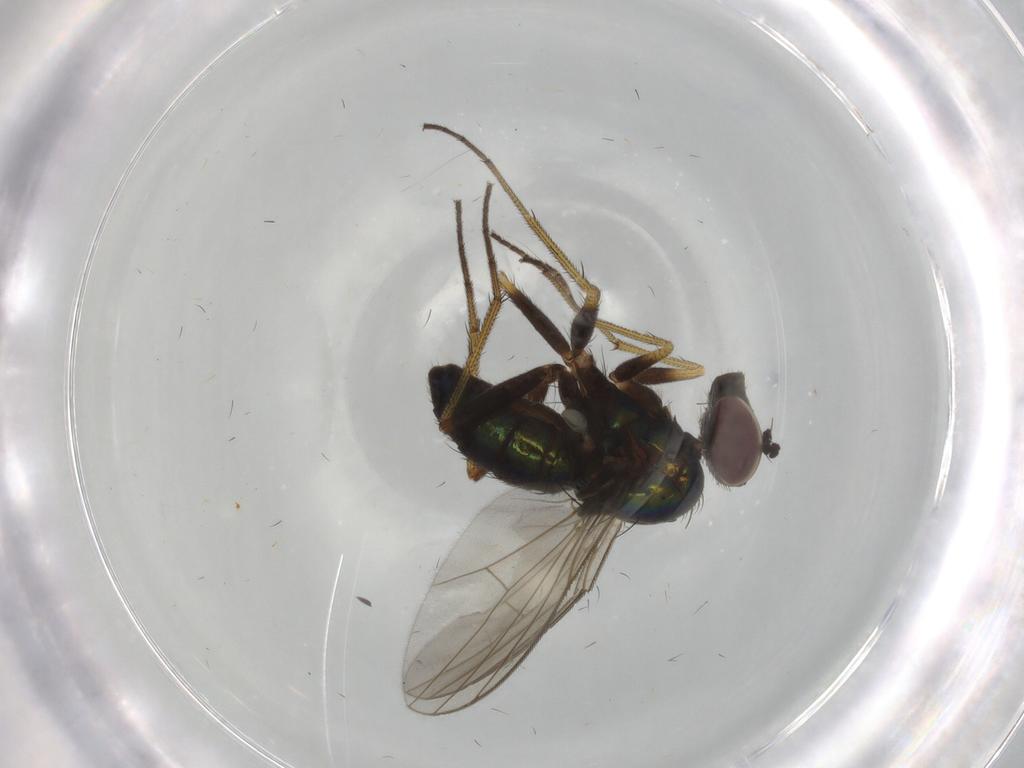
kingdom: Animalia
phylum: Arthropoda
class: Insecta
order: Diptera
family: Dolichopodidae
